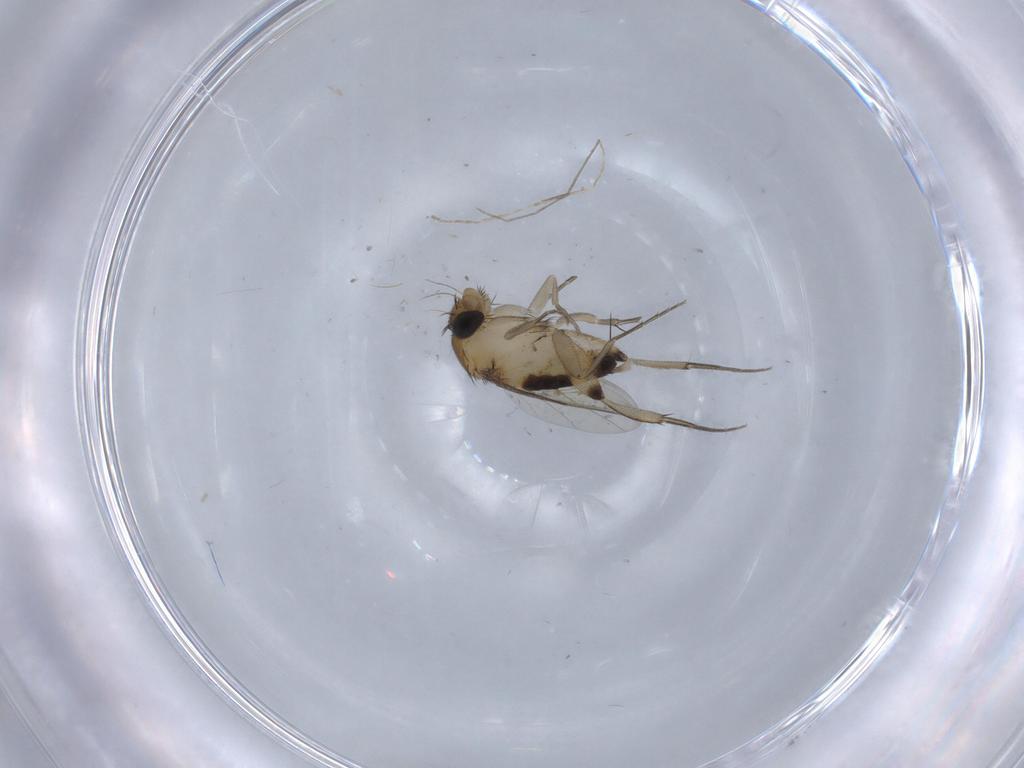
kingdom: Animalia
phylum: Arthropoda
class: Insecta
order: Diptera
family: Phoridae
